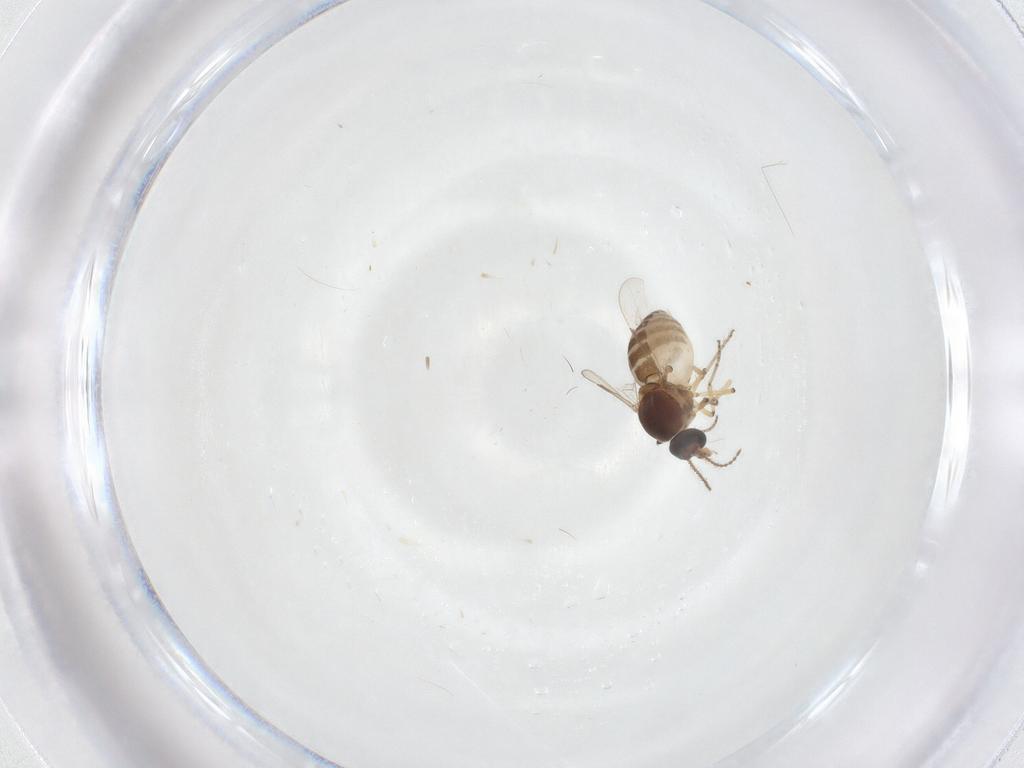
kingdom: Animalia
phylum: Arthropoda
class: Insecta
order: Diptera
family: Ceratopogonidae
